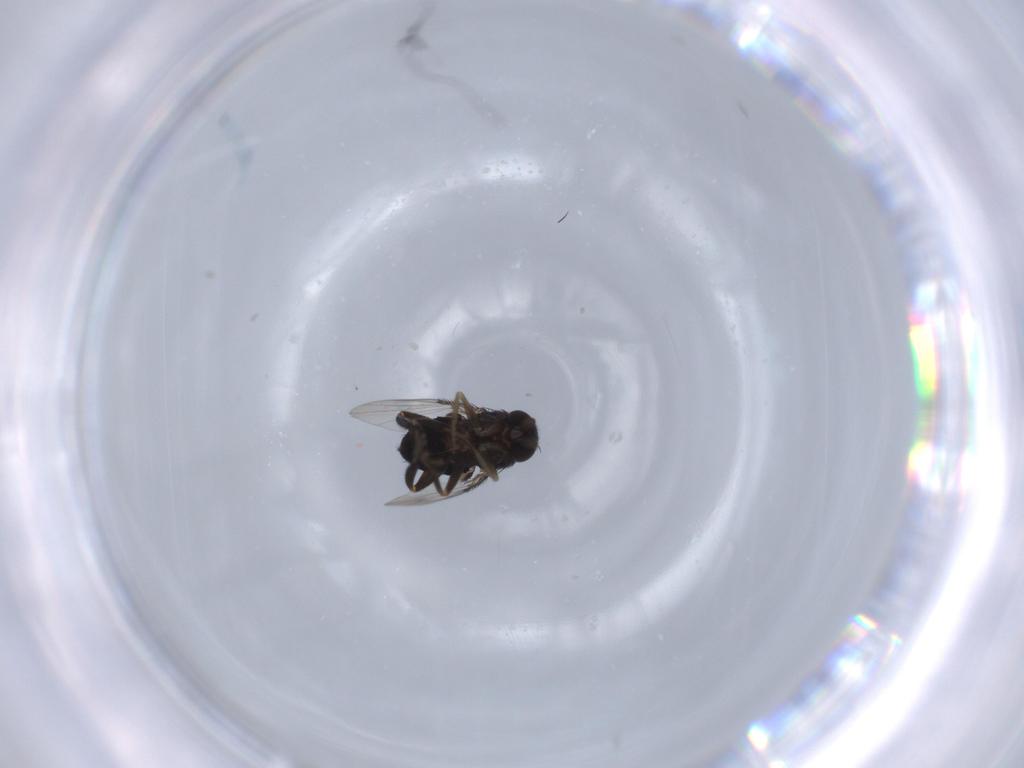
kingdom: Animalia
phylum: Arthropoda
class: Insecta
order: Diptera
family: Phoridae
